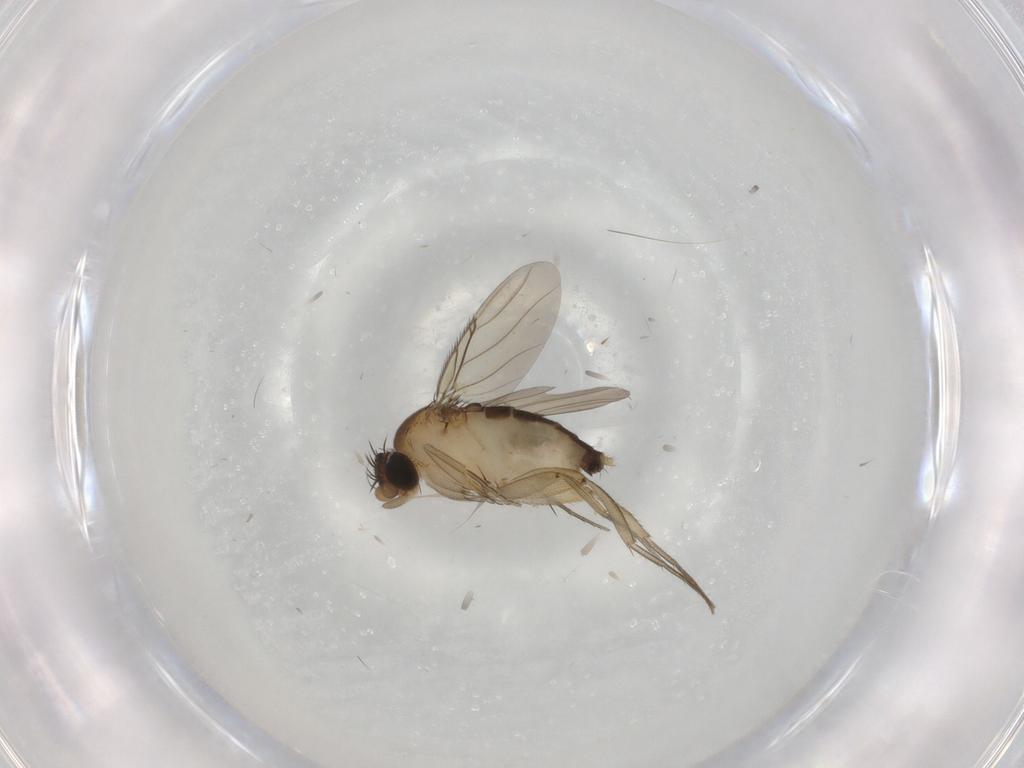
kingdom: Animalia
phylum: Arthropoda
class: Insecta
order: Diptera
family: Phoridae
